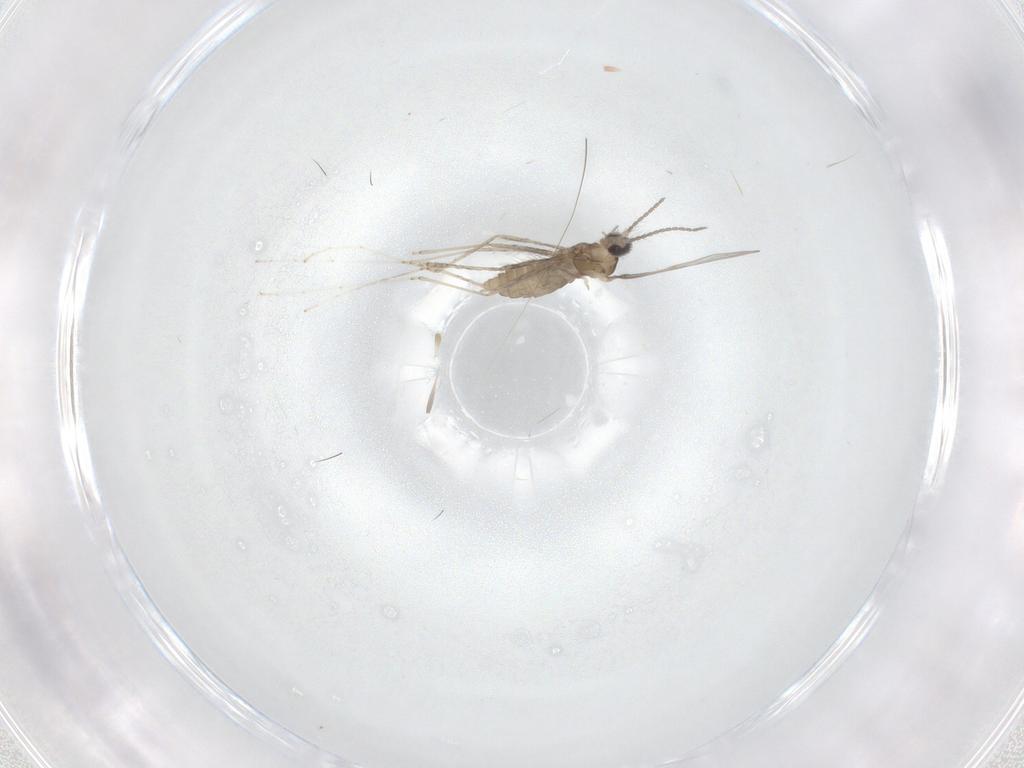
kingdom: Animalia
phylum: Arthropoda
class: Insecta
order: Diptera
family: Cecidomyiidae
